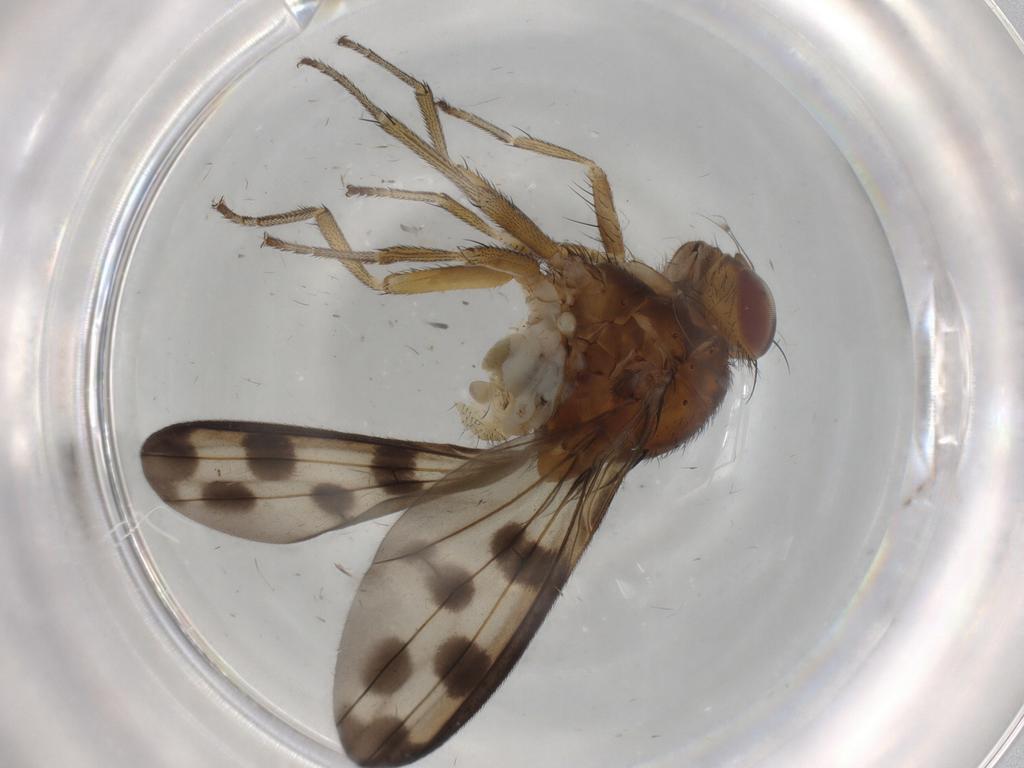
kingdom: Animalia
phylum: Arthropoda
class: Insecta
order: Diptera
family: Lauxaniidae
